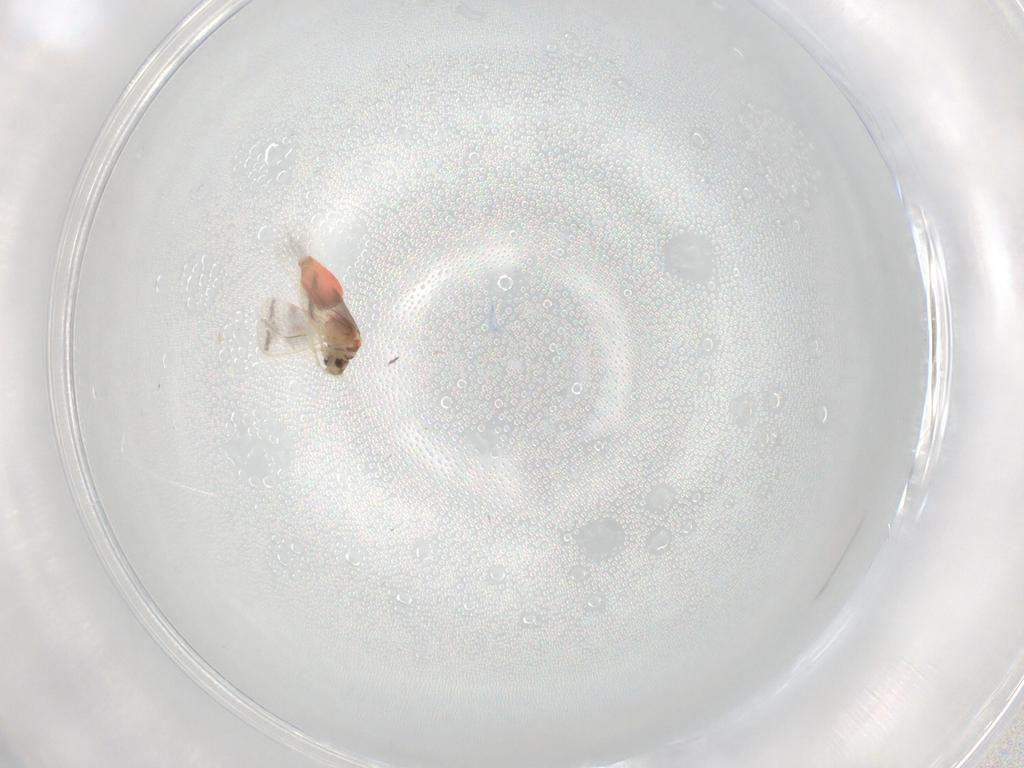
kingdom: Animalia
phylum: Arthropoda
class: Insecta
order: Hemiptera
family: Aleyrodidae
